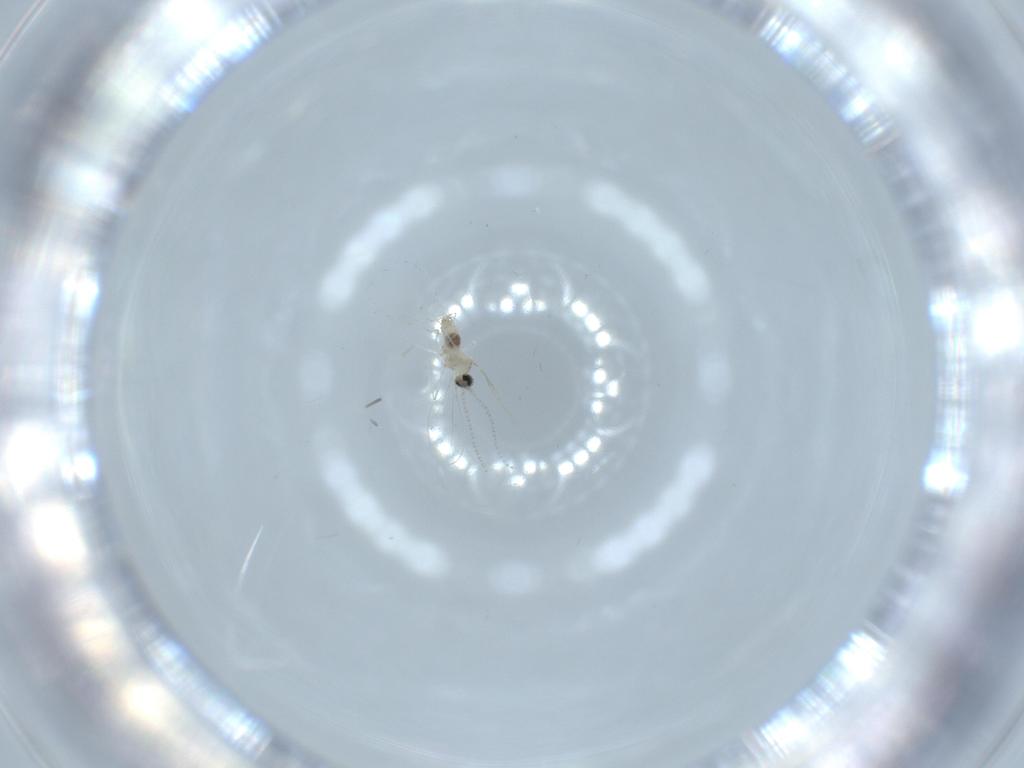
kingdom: Animalia
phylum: Arthropoda
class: Insecta
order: Diptera
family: Cecidomyiidae
